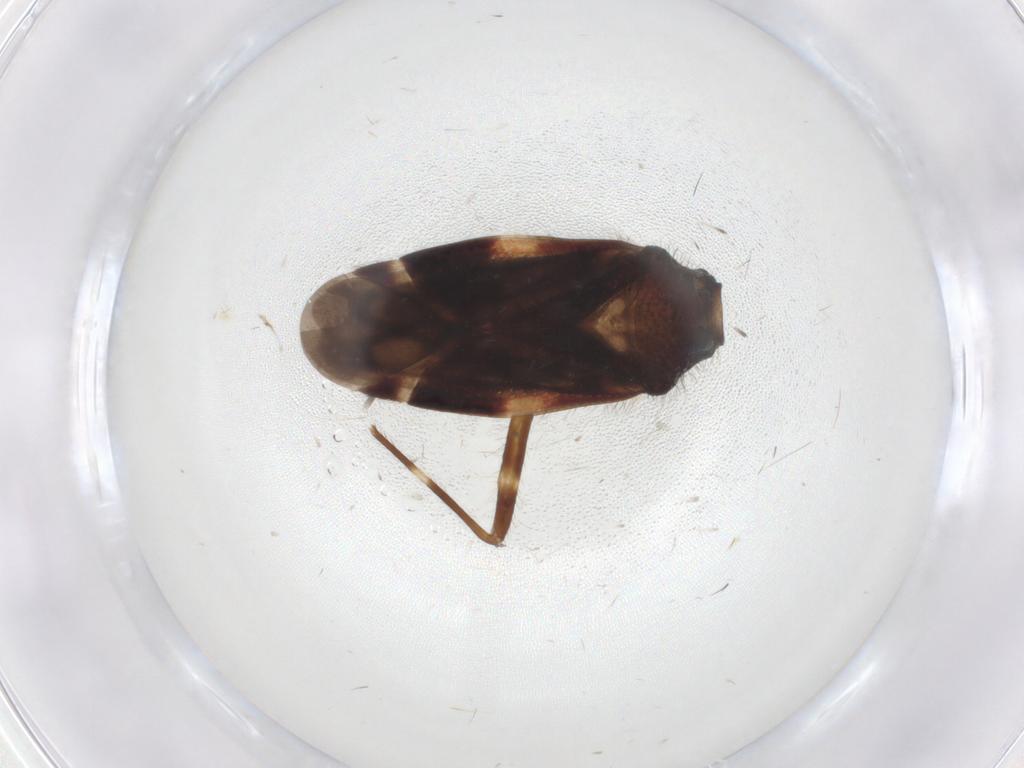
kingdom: Animalia
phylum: Arthropoda
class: Insecta
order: Hemiptera
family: Miridae
